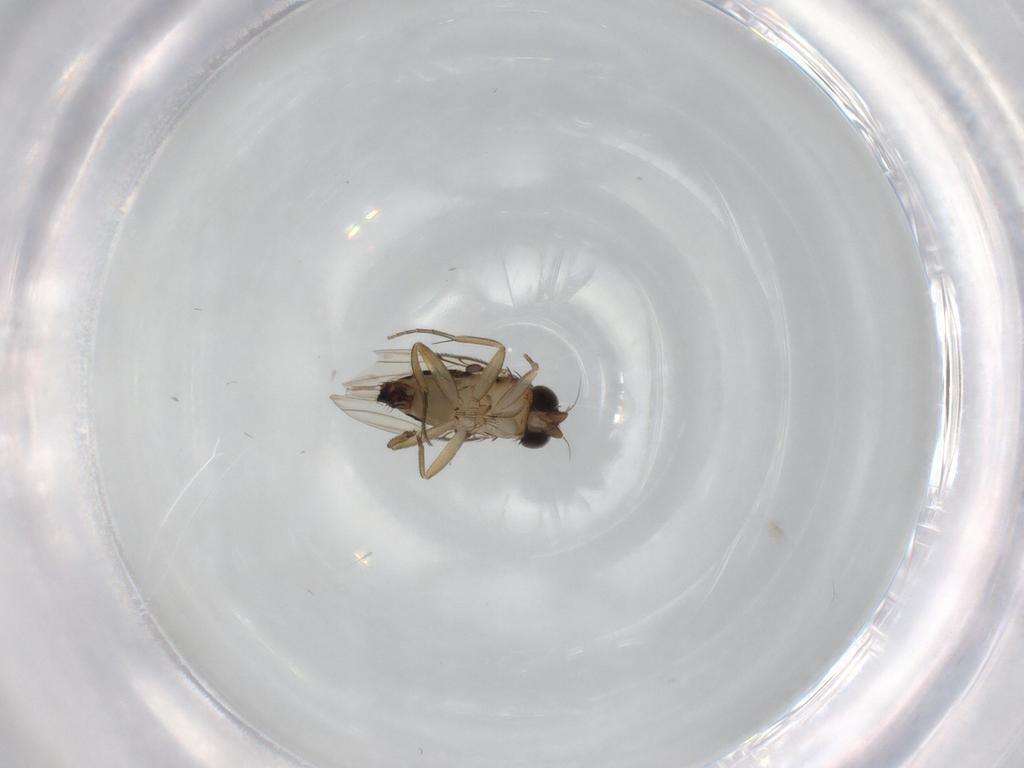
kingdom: Animalia
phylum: Arthropoda
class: Insecta
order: Diptera
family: Phoridae
